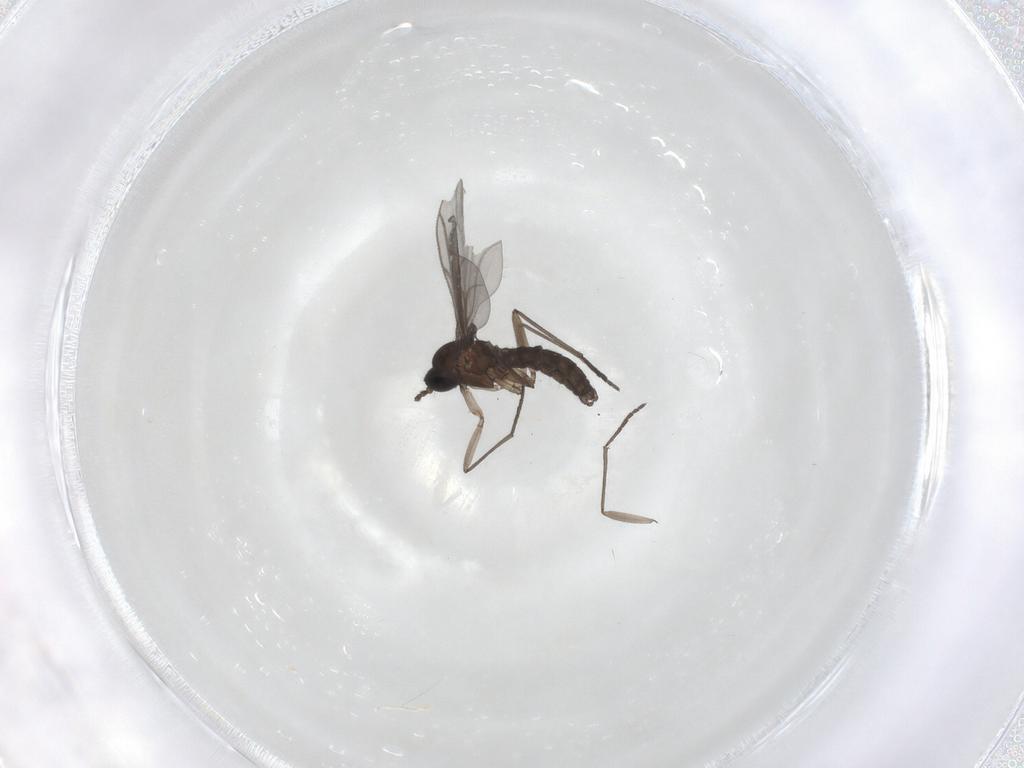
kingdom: Animalia
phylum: Arthropoda
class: Insecta
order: Diptera
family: Sciaridae
